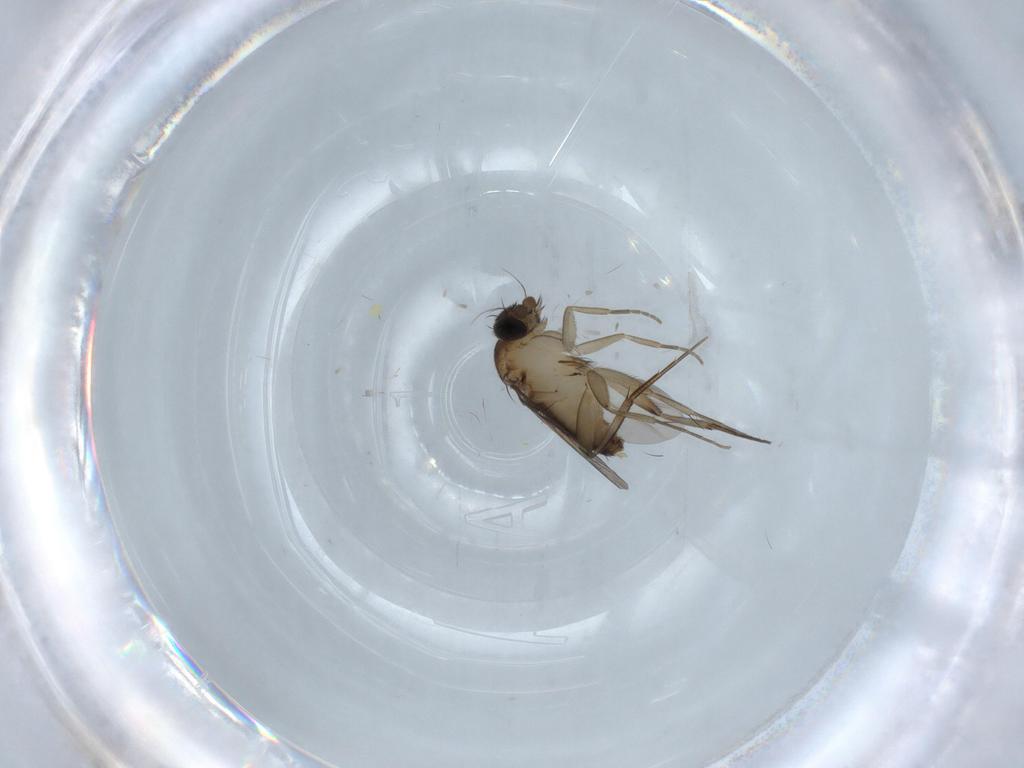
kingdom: Animalia
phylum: Arthropoda
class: Insecta
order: Diptera
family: Phoridae
